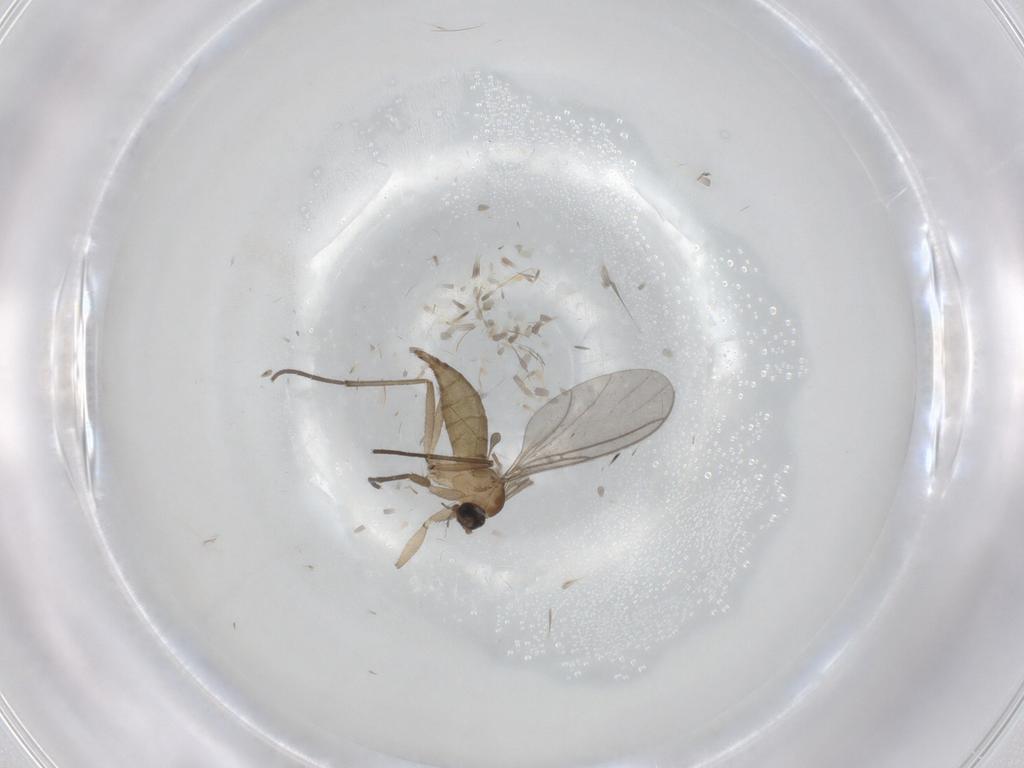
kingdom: Animalia
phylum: Arthropoda
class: Insecta
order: Diptera
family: Sciaridae
